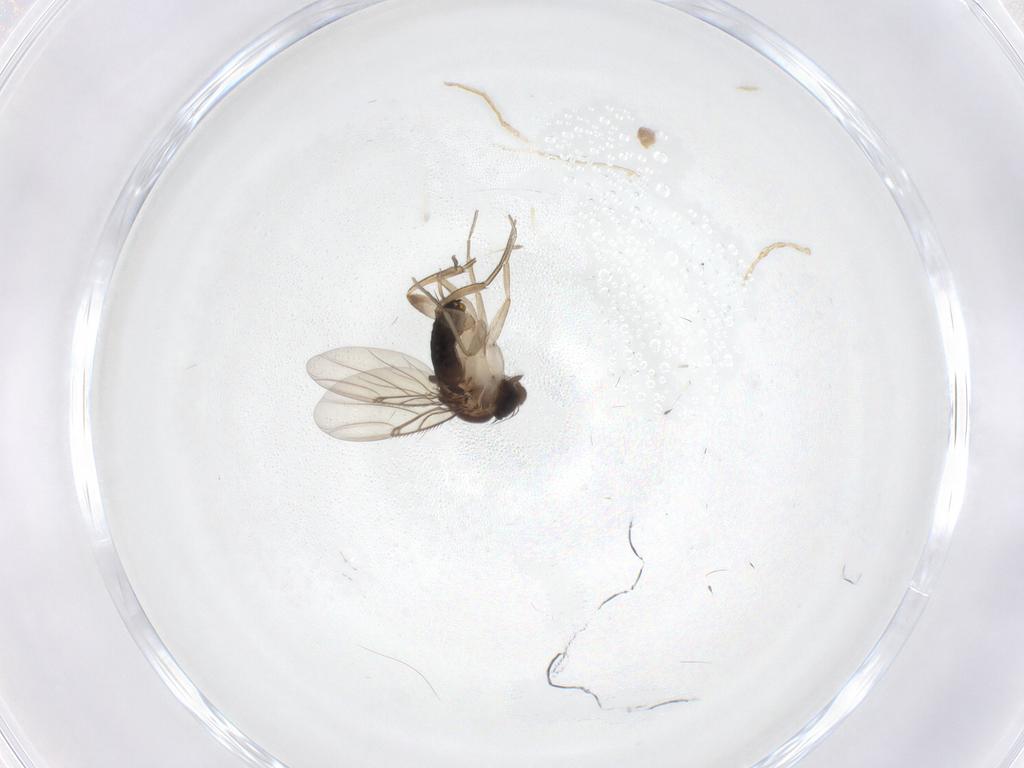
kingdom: Animalia
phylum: Arthropoda
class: Insecta
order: Diptera
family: Phoridae
